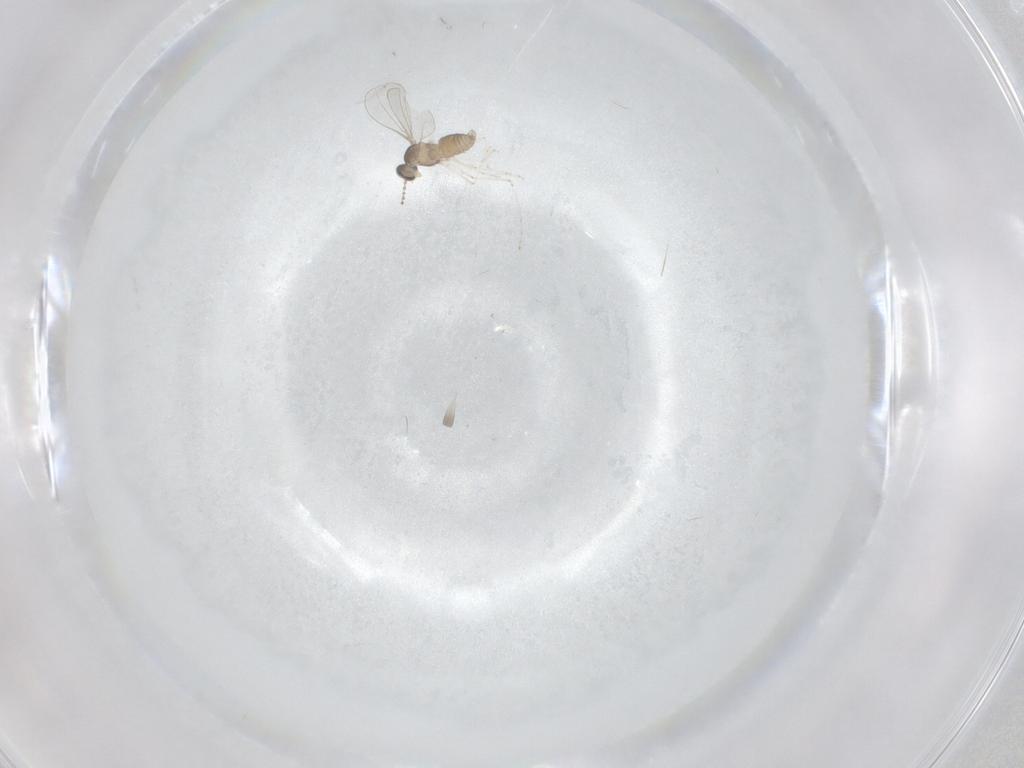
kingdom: Animalia
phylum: Arthropoda
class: Insecta
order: Diptera
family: Cecidomyiidae
